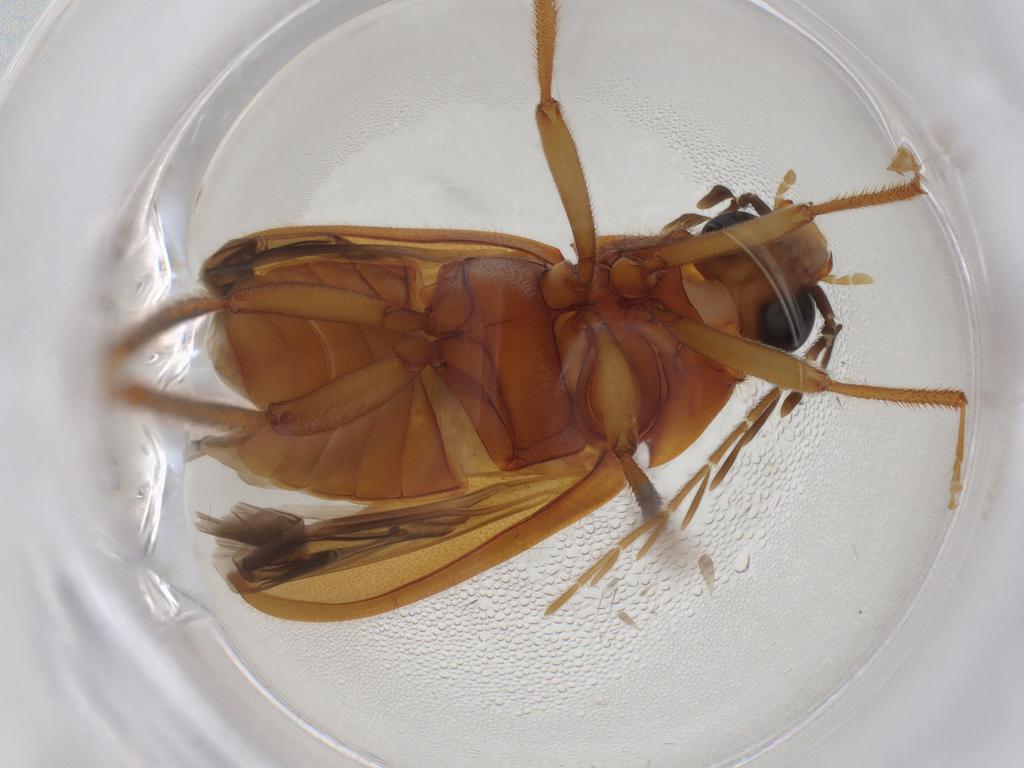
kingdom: Animalia
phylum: Arthropoda
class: Insecta
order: Coleoptera
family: Ptilodactylidae
